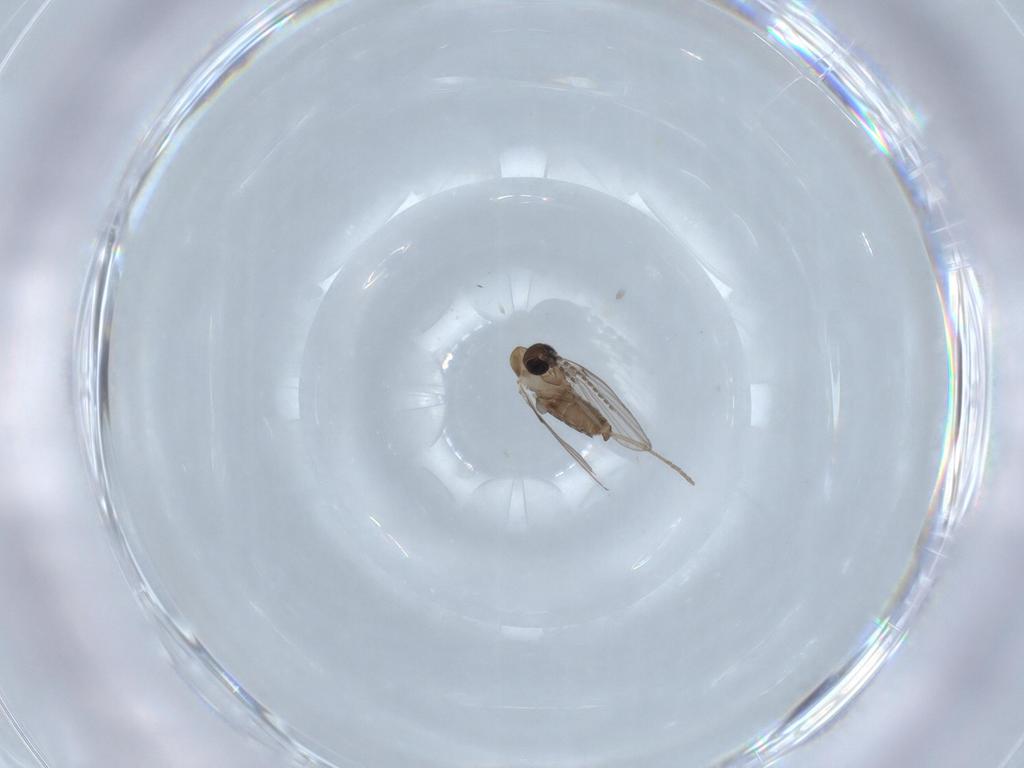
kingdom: Animalia
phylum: Arthropoda
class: Insecta
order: Diptera
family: Psychodidae
